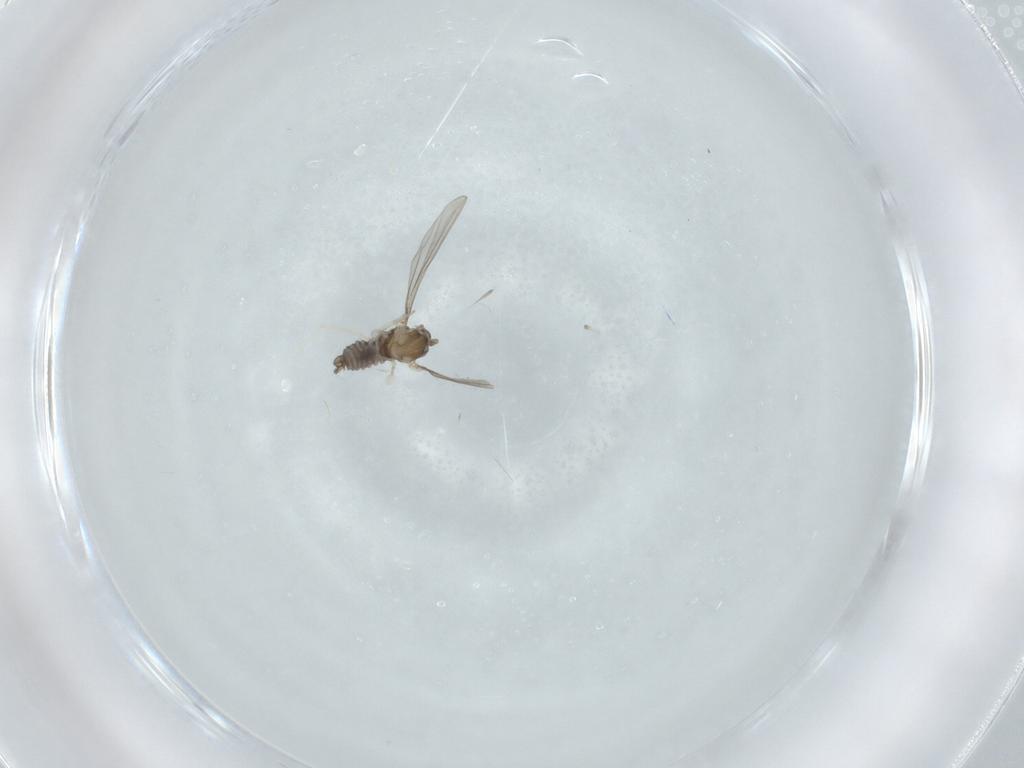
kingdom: Animalia
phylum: Arthropoda
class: Insecta
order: Diptera
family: Cecidomyiidae
